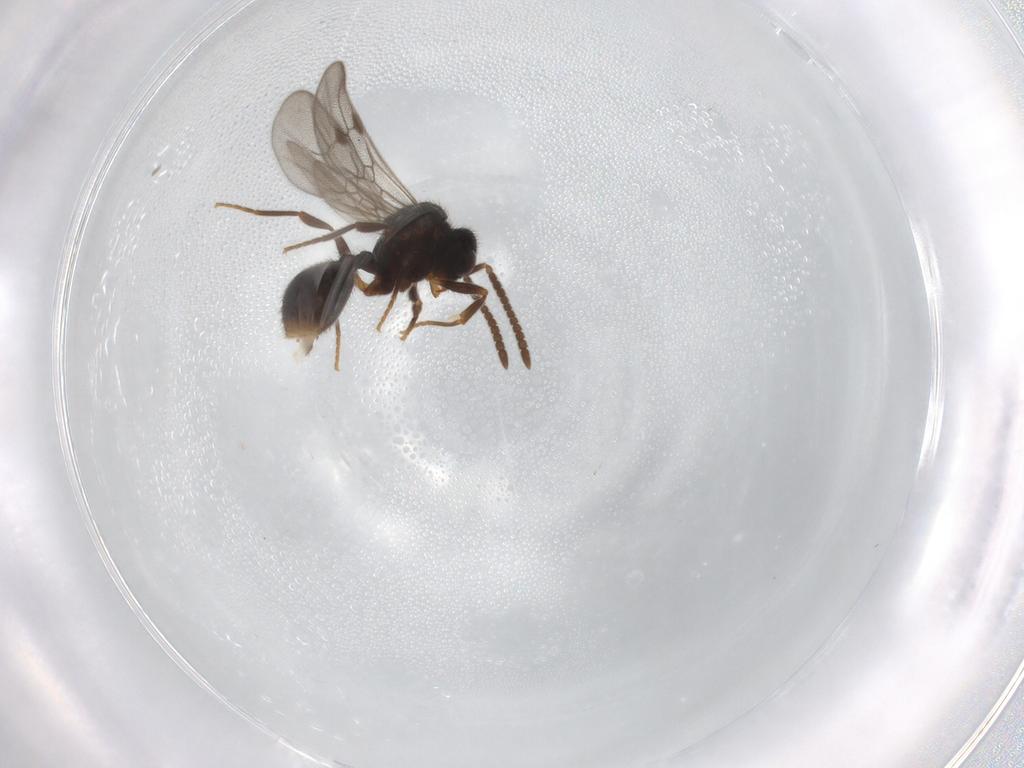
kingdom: Animalia
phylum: Arthropoda
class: Insecta
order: Hymenoptera
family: Formicidae
